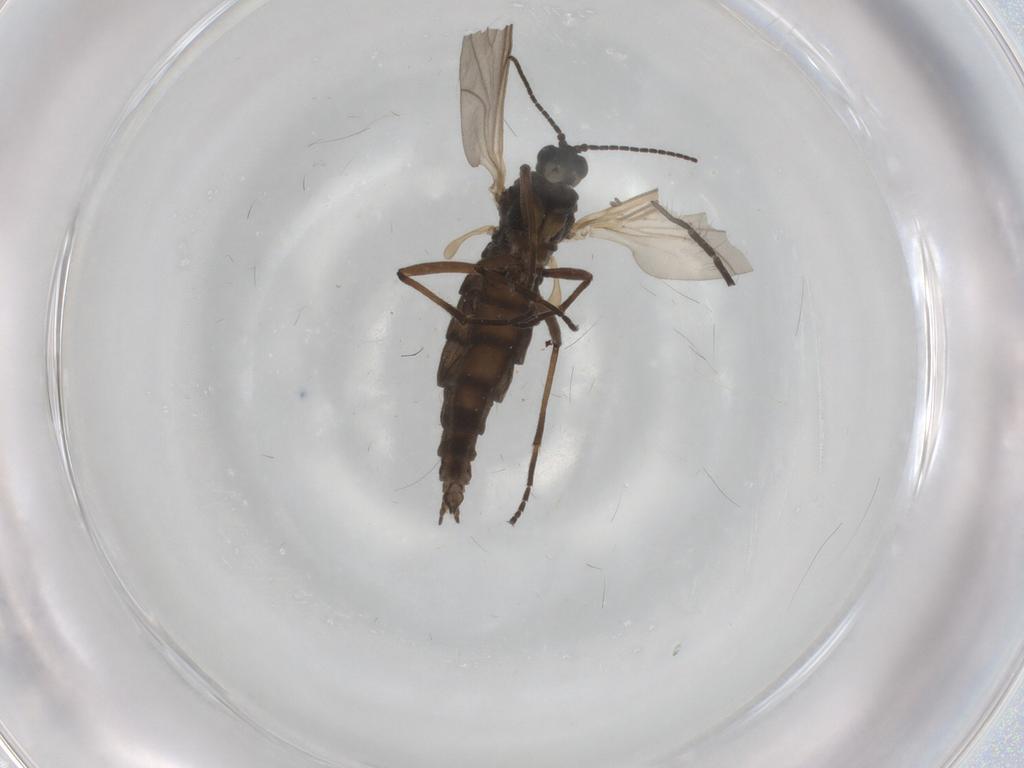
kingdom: Animalia
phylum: Arthropoda
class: Insecta
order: Diptera
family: Sciaridae
